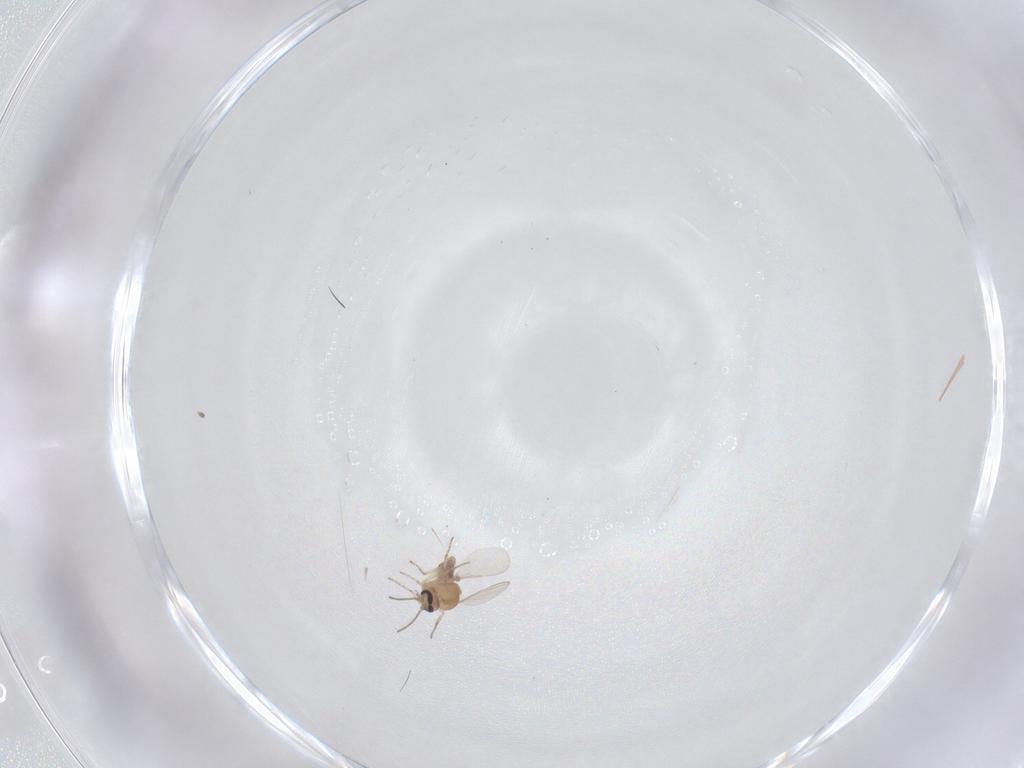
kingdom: Animalia
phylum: Arthropoda
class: Insecta
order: Diptera
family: Ceratopogonidae
